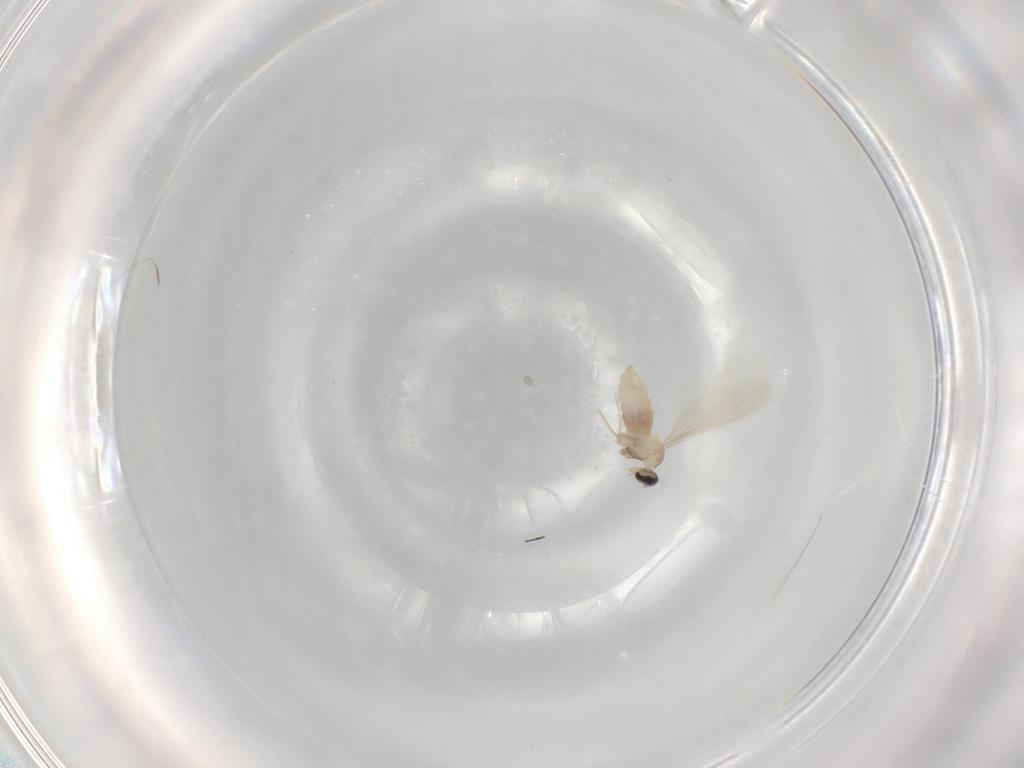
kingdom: Animalia
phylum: Arthropoda
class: Insecta
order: Diptera
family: Cecidomyiidae
